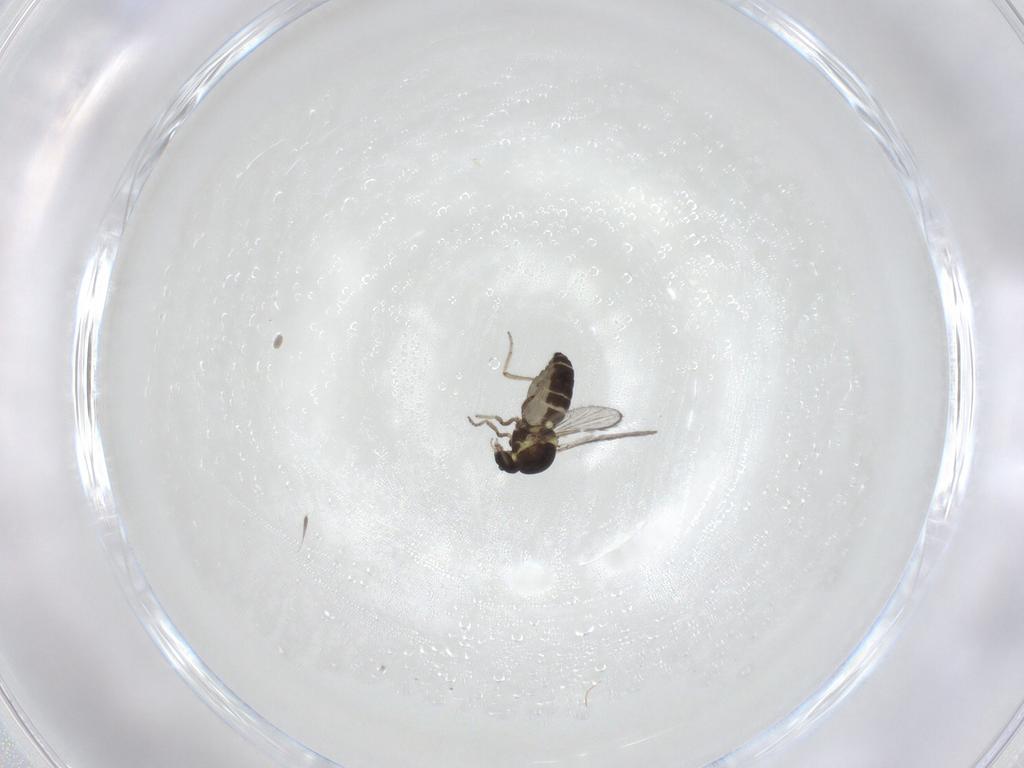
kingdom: Animalia
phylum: Arthropoda
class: Insecta
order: Diptera
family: Ceratopogonidae
